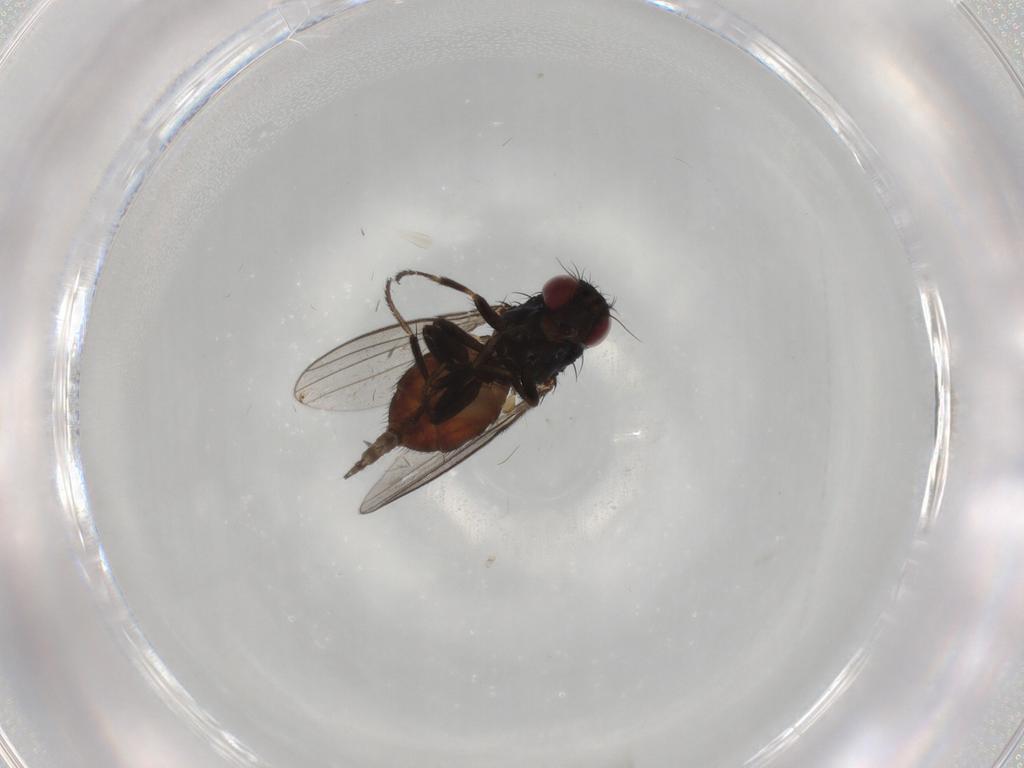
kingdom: Animalia
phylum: Arthropoda
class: Insecta
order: Diptera
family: Milichiidae
